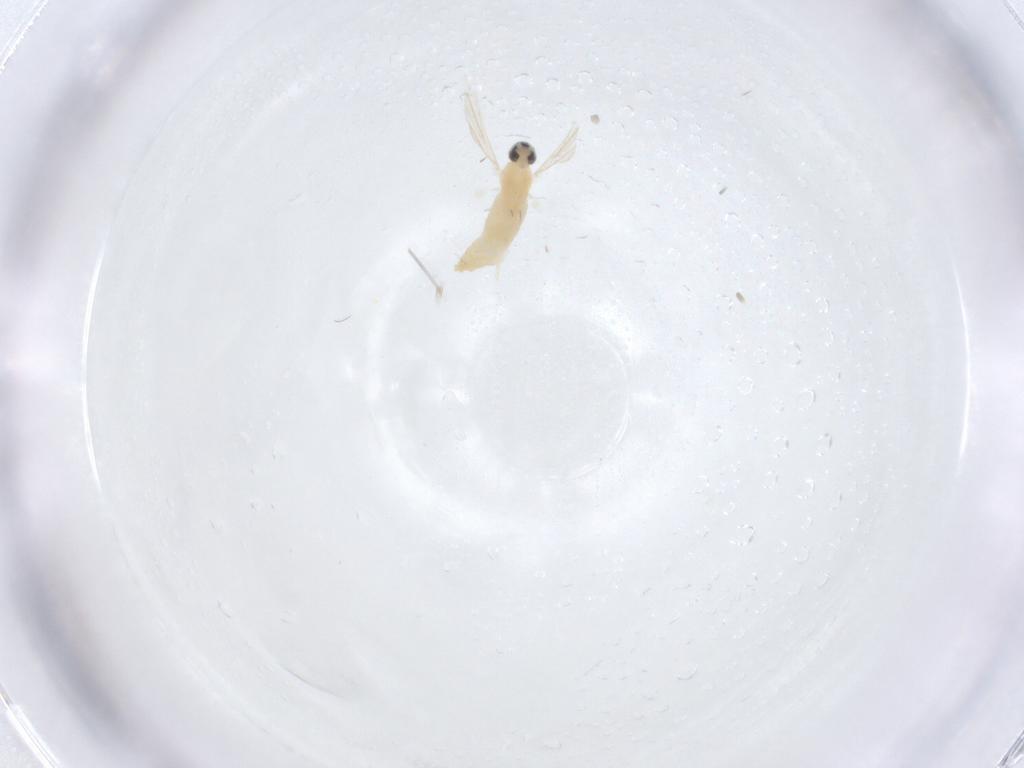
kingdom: Animalia
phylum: Arthropoda
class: Insecta
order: Diptera
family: Cecidomyiidae
